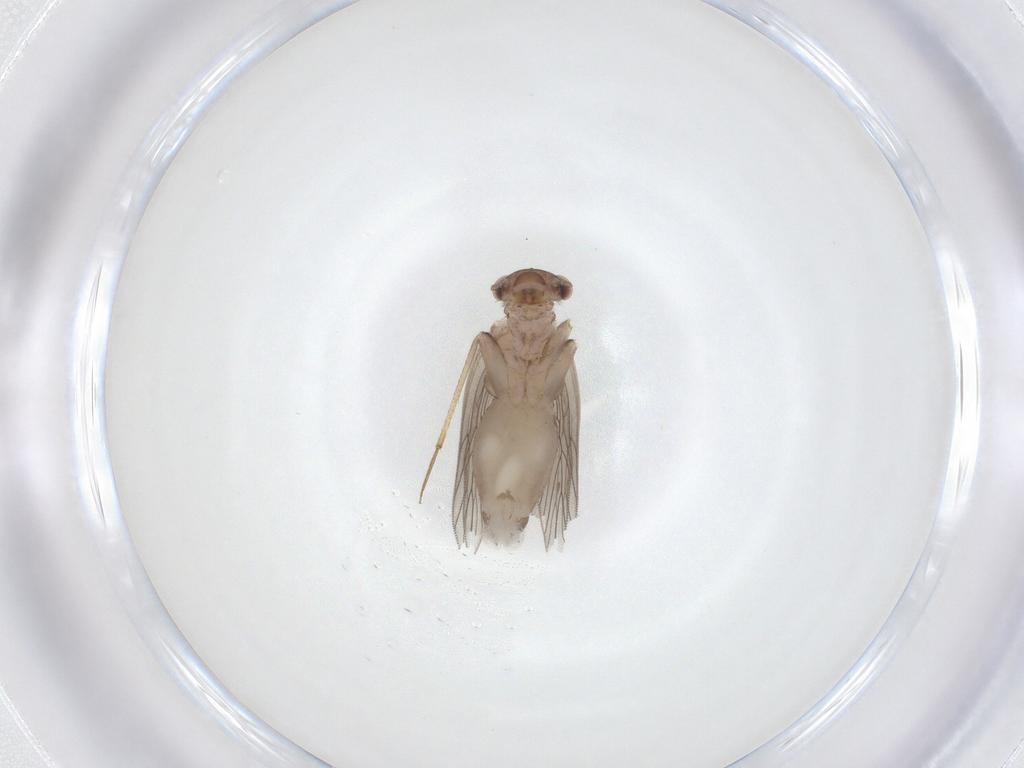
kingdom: Animalia
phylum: Arthropoda
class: Insecta
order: Psocodea
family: Lepidopsocidae
